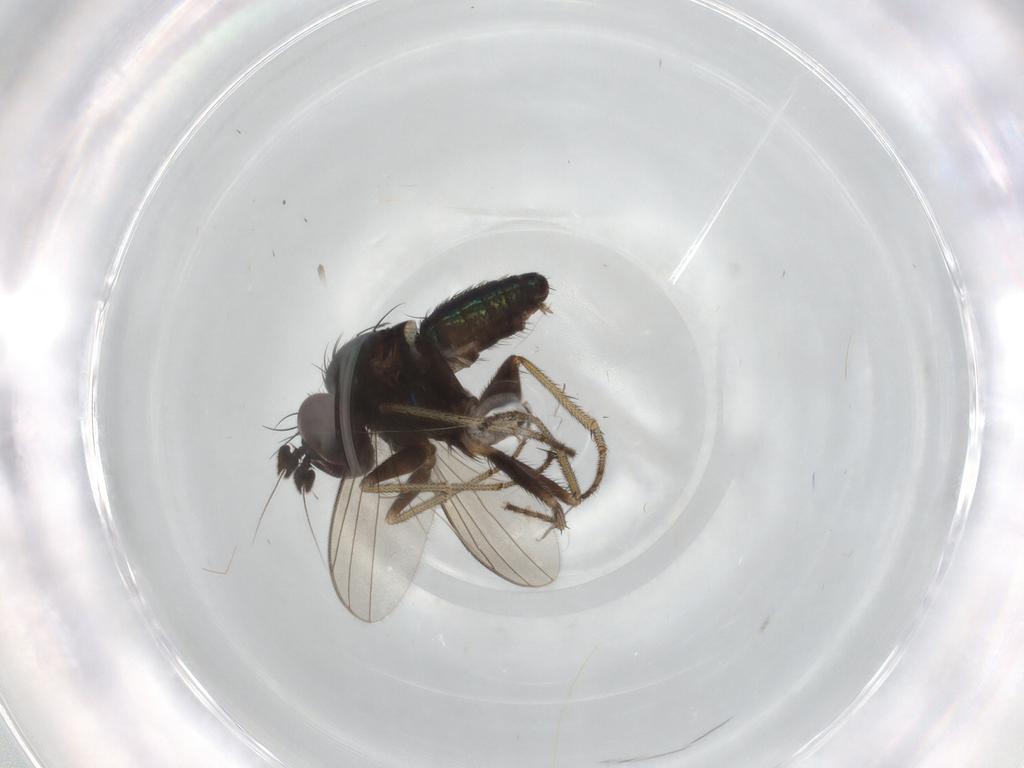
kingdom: Animalia
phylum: Arthropoda
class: Insecta
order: Diptera
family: Dolichopodidae
